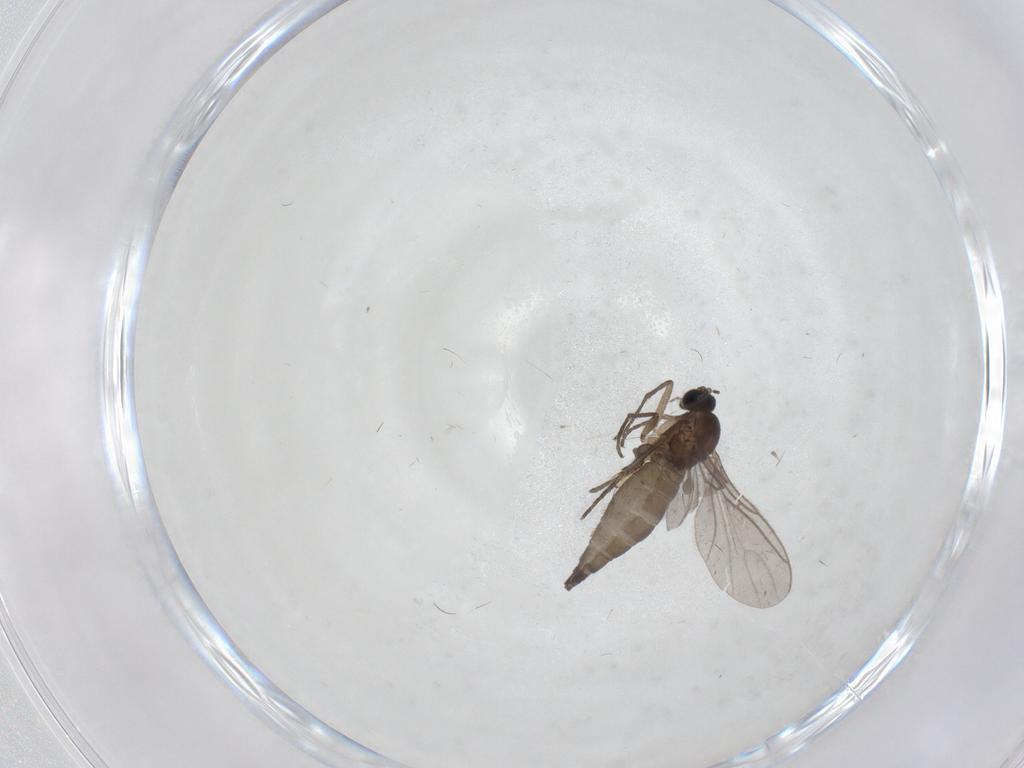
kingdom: Animalia
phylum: Arthropoda
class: Insecta
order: Diptera
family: Sciaridae
